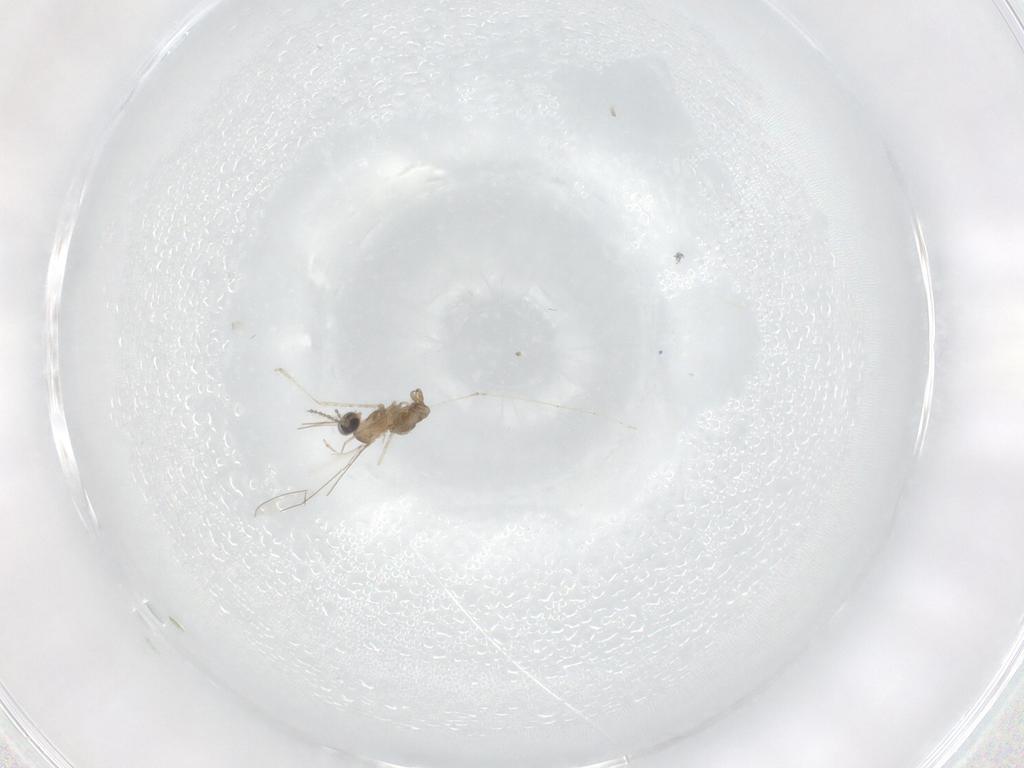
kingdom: Animalia
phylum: Arthropoda
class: Insecta
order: Diptera
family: Cecidomyiidae
